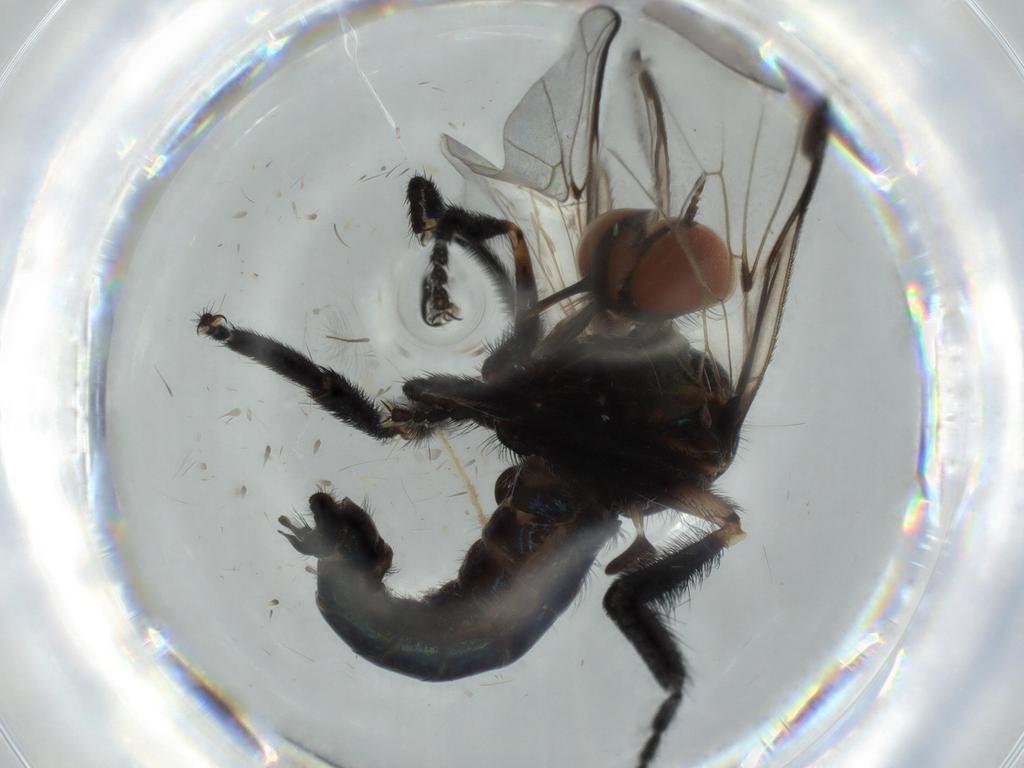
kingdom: Animalia
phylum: Arthropoda
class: Insecta
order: Diptera
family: Empididae
